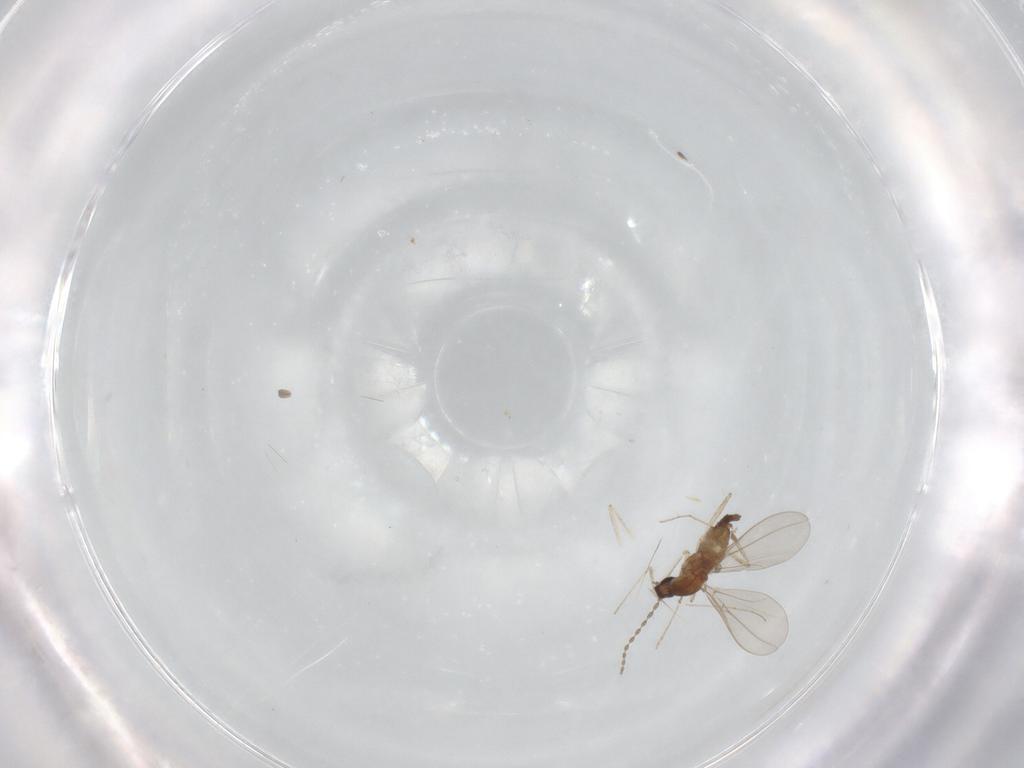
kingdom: Animalia
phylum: Arthropoda
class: Insecta
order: Diptera
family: Cecidomyiidae
